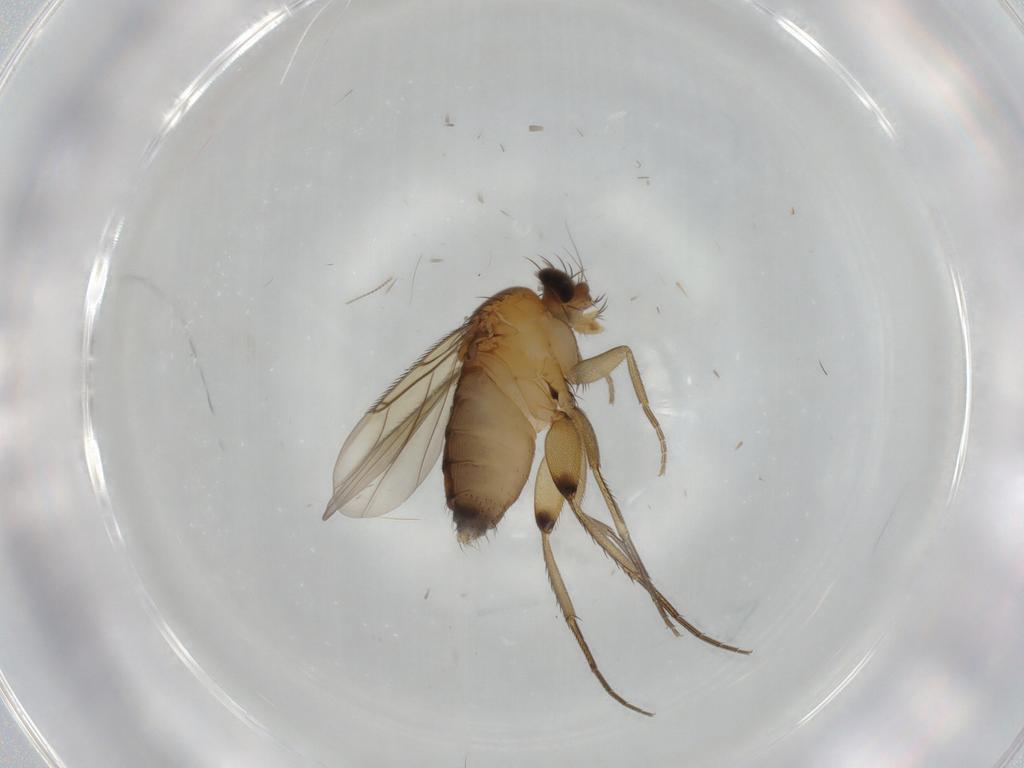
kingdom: Animalia
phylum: Arthropoda
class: Insecta
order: Diptera
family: Phoridae
